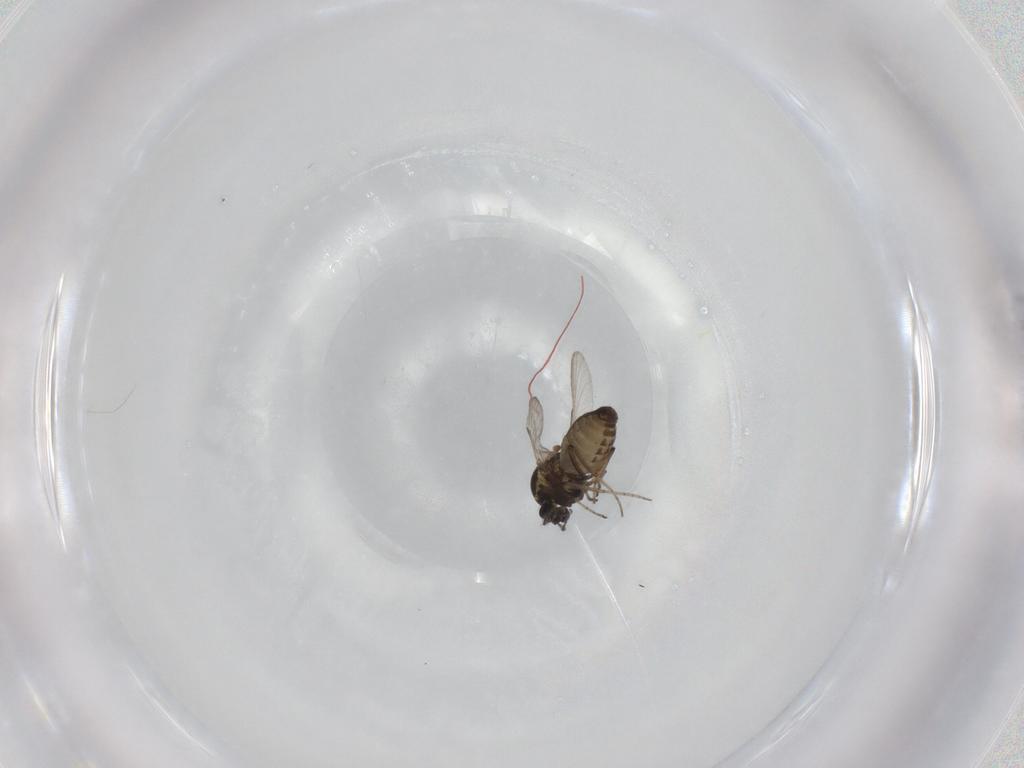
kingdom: Animalia
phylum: Arthropoda
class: Insecta
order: Diptera
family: Ceratopogonidae
